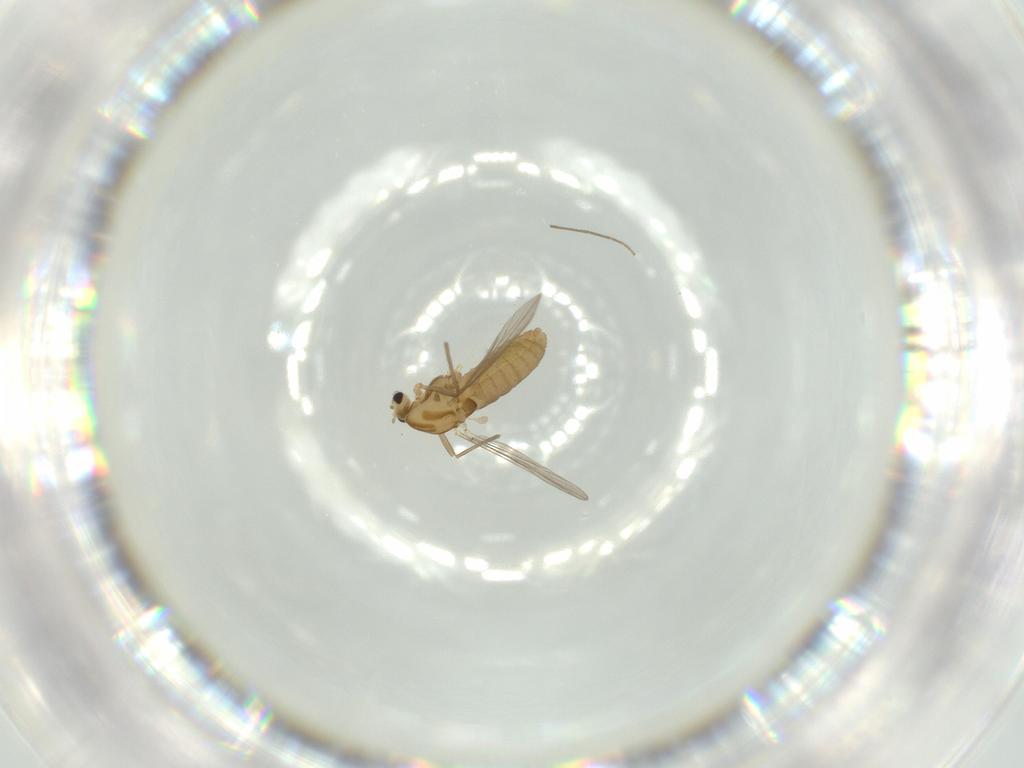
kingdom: Animalia
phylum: Arthropoda
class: Insecta
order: Diptera
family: Chironomidae
